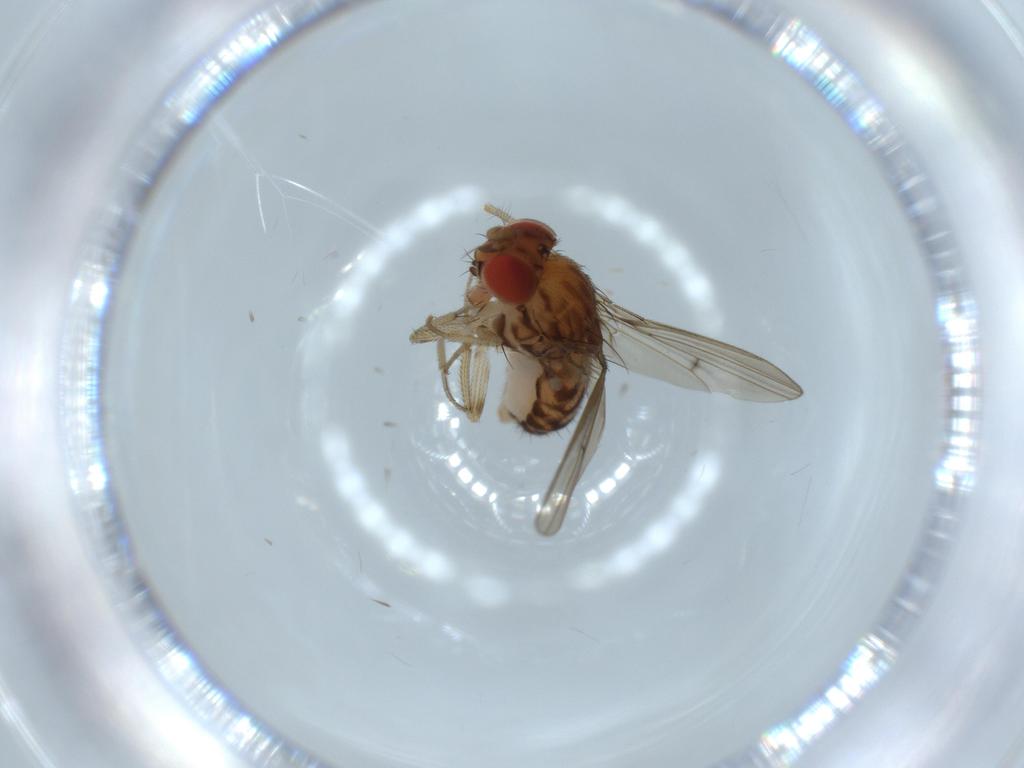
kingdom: Animalia
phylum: Arthropoda
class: Insecta
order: Diptera
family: Drosophilidae
